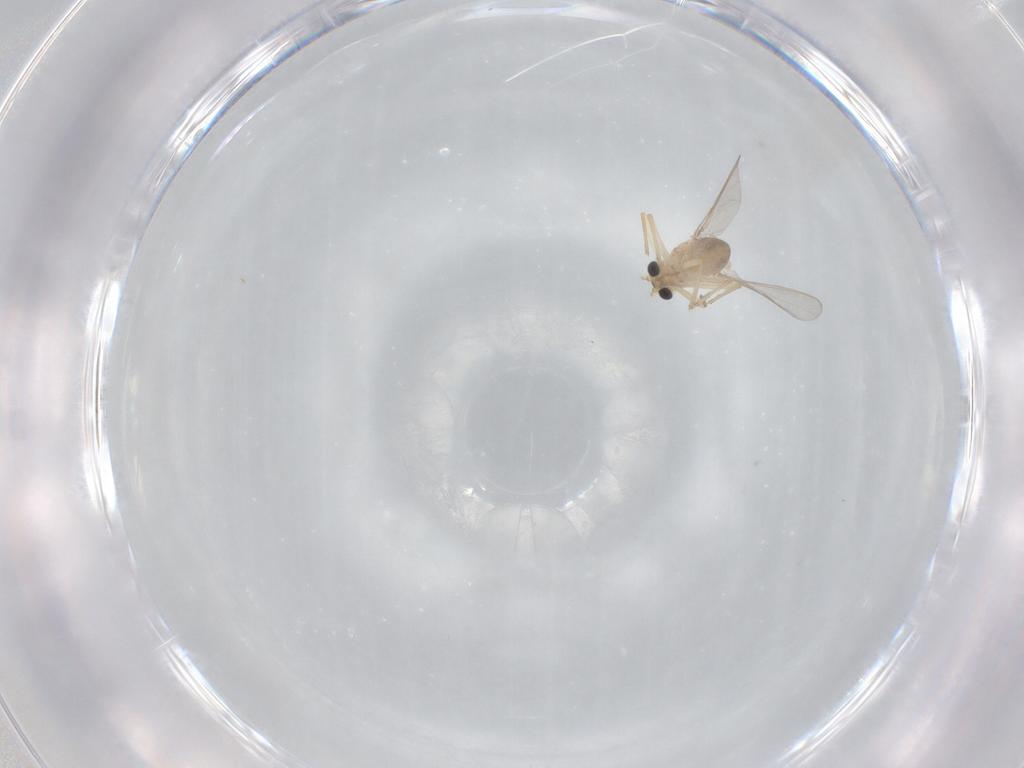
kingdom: Animalia
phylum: Arthropoda
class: Insecta
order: Diptera
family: Chironomidae
